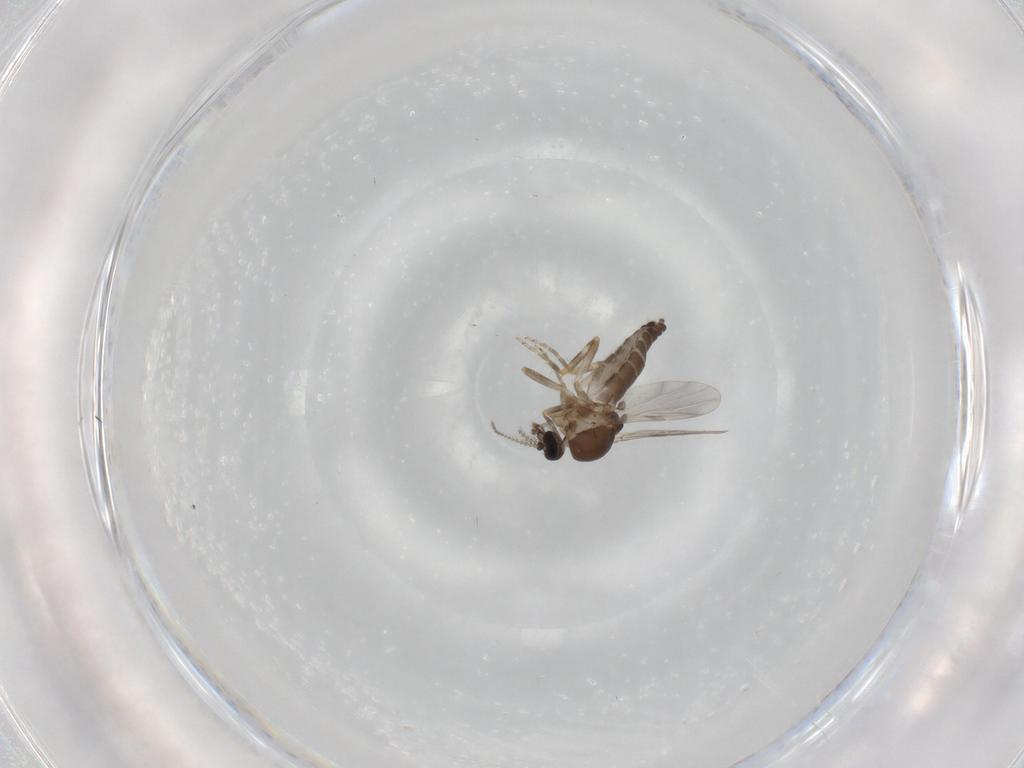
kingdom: Animalia
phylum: Arthropoda
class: Insecta
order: Diptera
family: Ceratopogonidae
